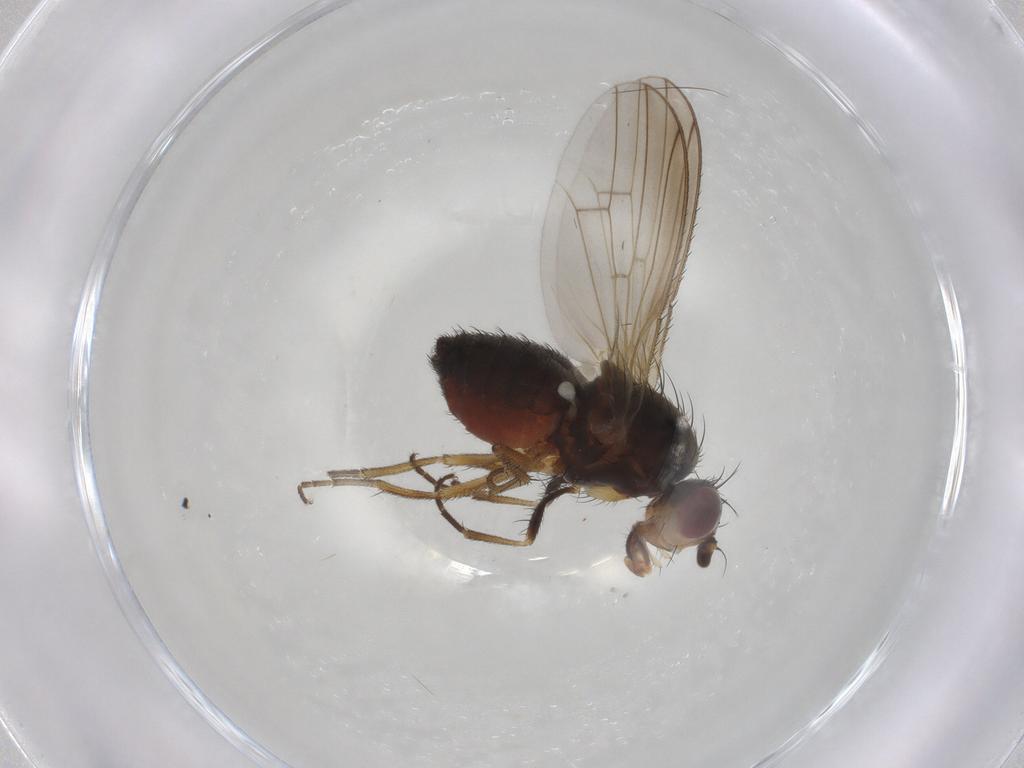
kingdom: Animalia
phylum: Arthropoda
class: Insecta
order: Diptera
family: Heleomyzidae
